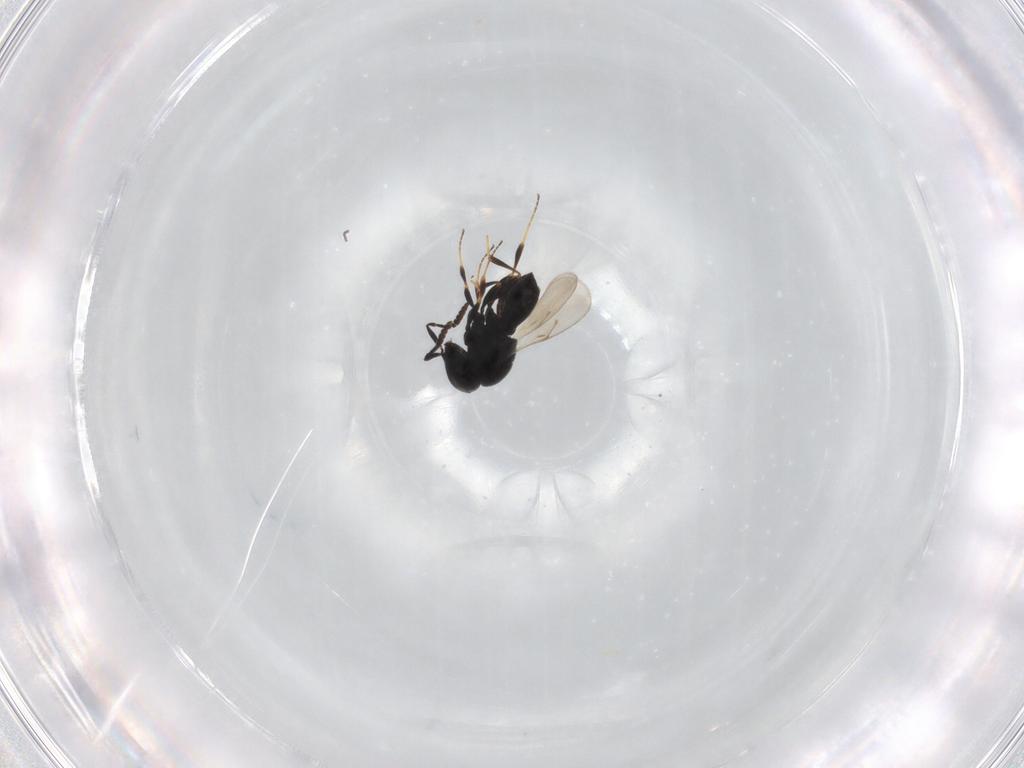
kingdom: Animalia
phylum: Arthropoda
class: Insecta
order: Hymenoptera
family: Scelionidae
